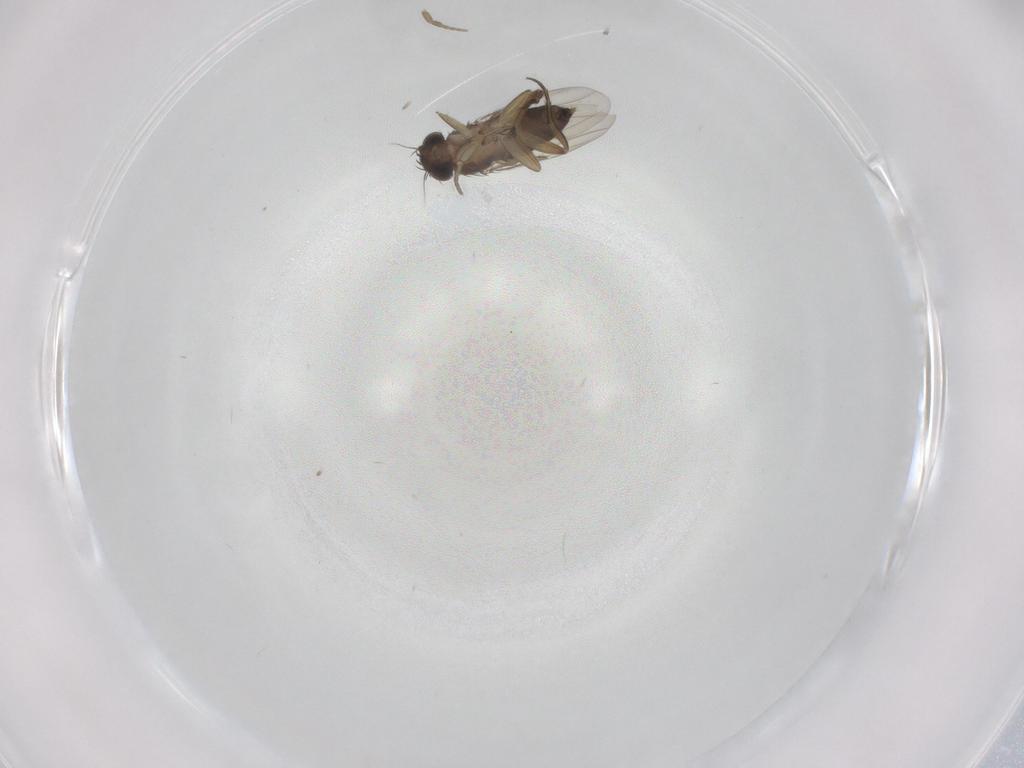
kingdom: Animalia
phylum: Arthropoda
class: Insecta
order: Diptera
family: Phoridae
